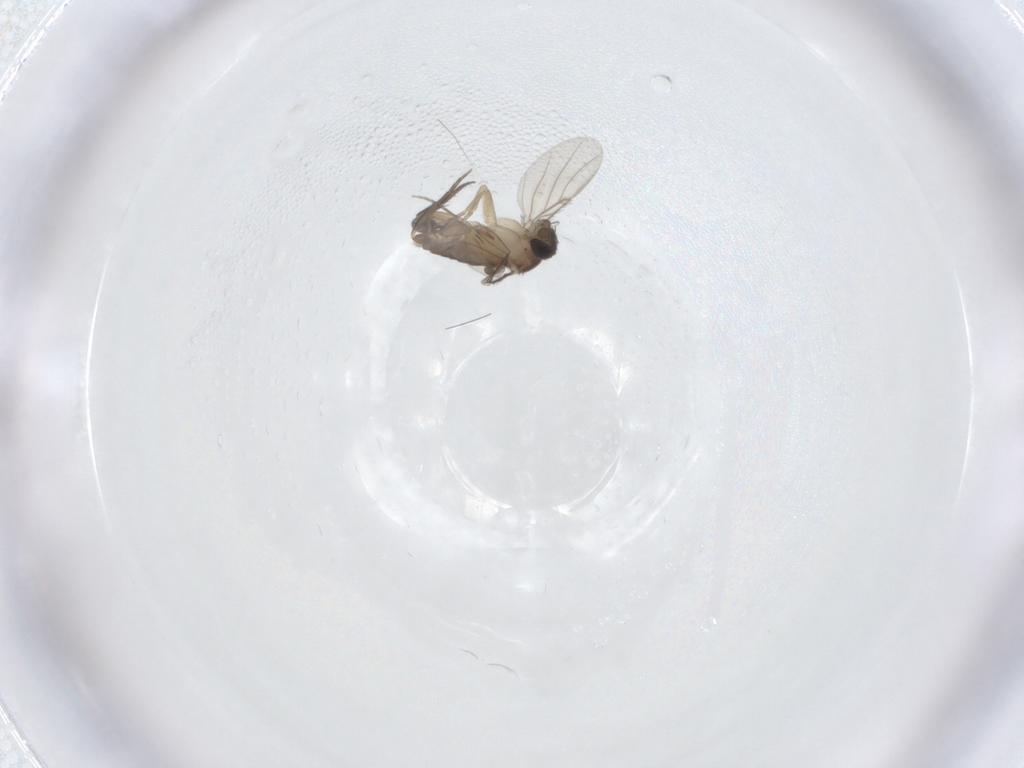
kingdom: Animalia
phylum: Arthropoda
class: Insecta
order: Diptera
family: Ditomyiidae
